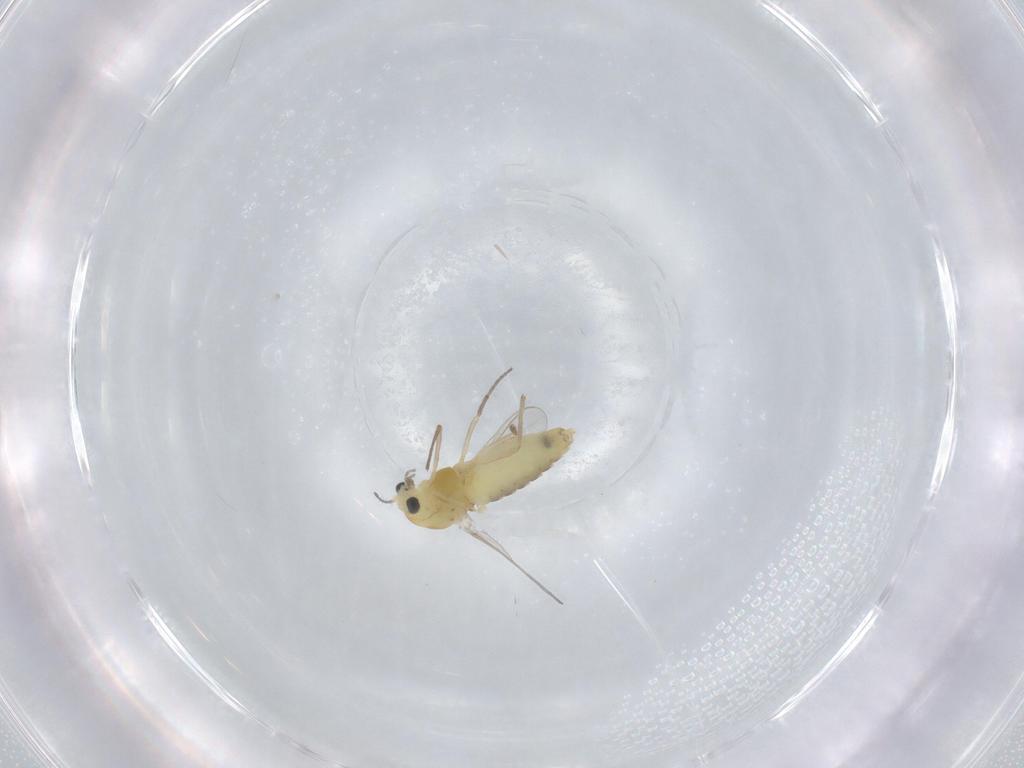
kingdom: Animalia
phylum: Arthropoda
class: Insecta
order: Diptera
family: Chironomidae
